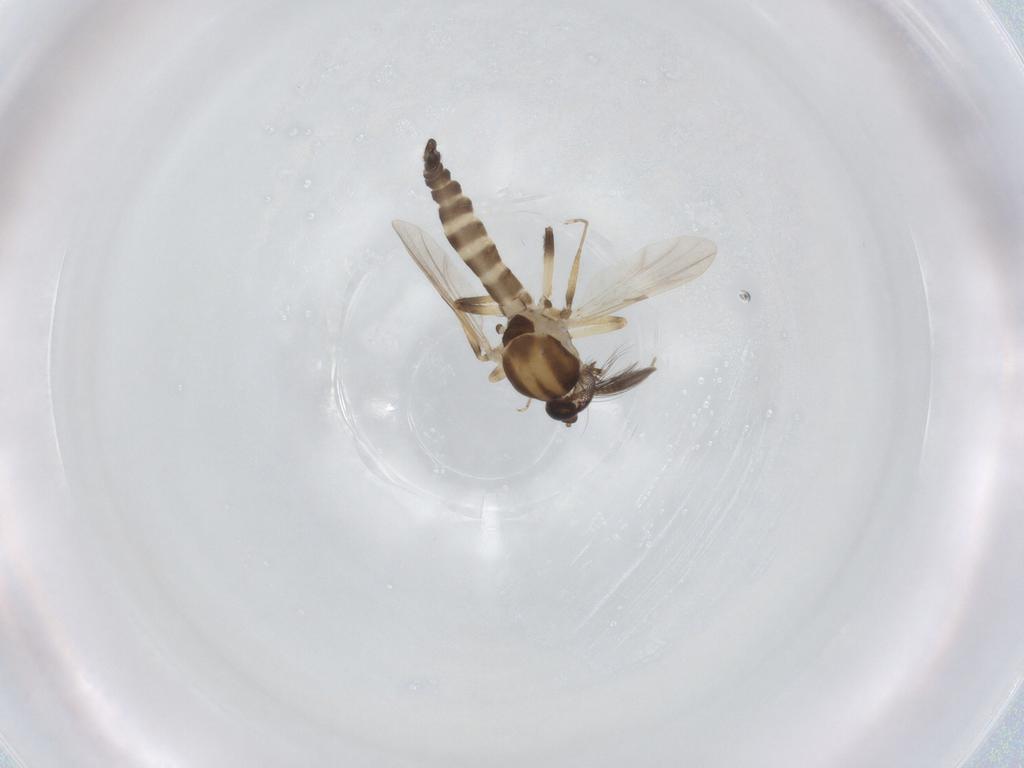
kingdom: Animalia
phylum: Arthropoda
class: Insecta
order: Diptera
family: Ceratopogonidae
